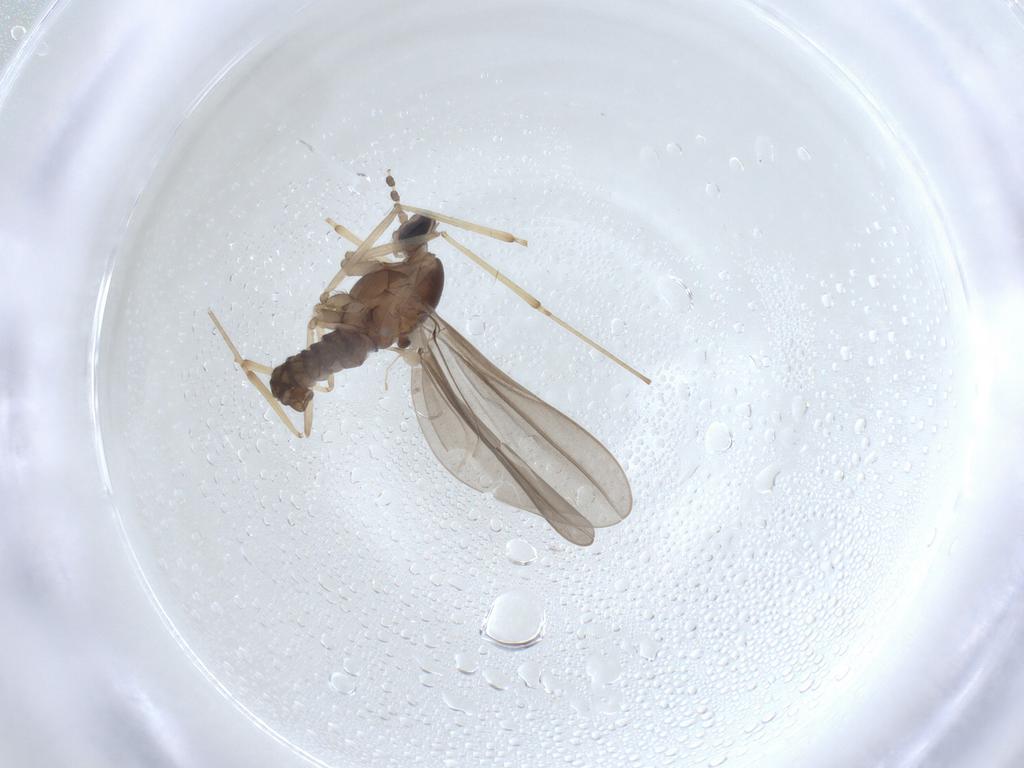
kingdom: Animalia
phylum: Arthropoda
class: Insecta
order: Diptera
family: Cecidomyiidae
